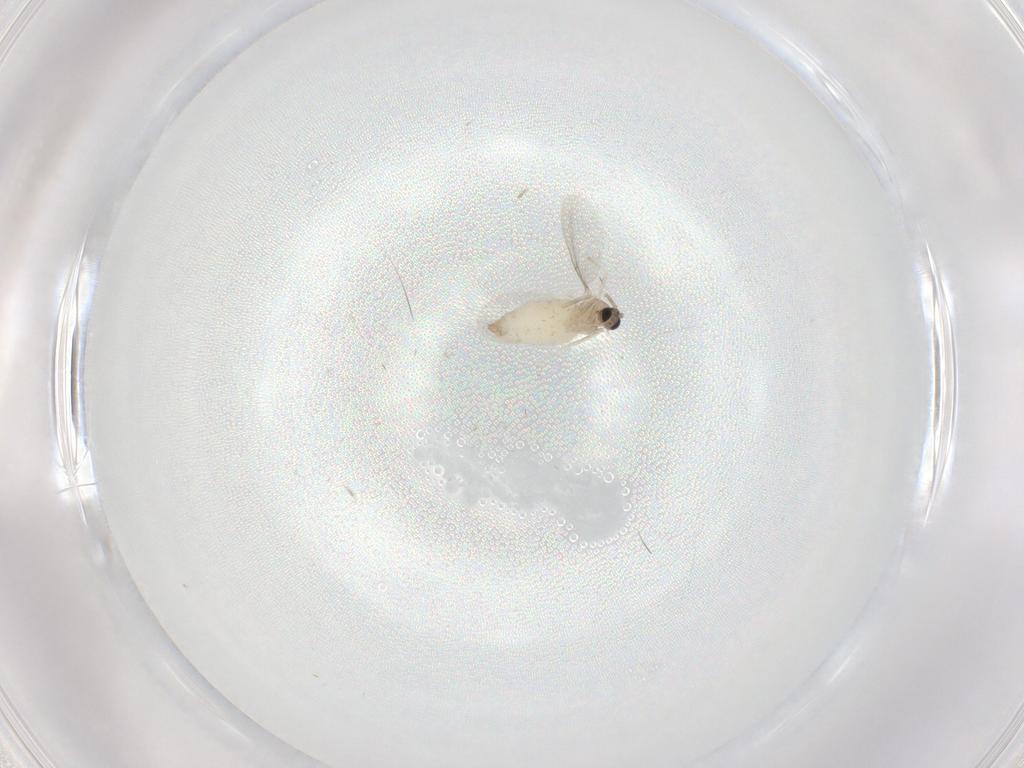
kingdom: Animalia
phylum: Arthropoda
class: Insecta
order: Diptera
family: Cecidomyiidae
